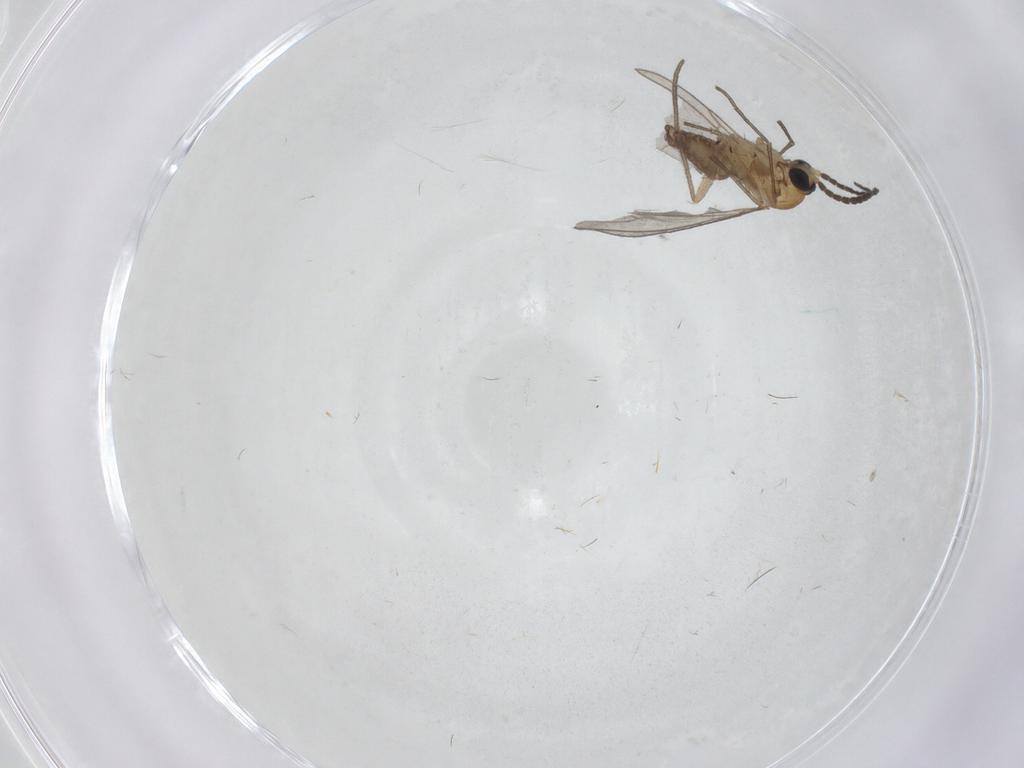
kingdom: Animalia
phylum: Arthropoda
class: Insecta
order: Diptera
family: Sciaridae
